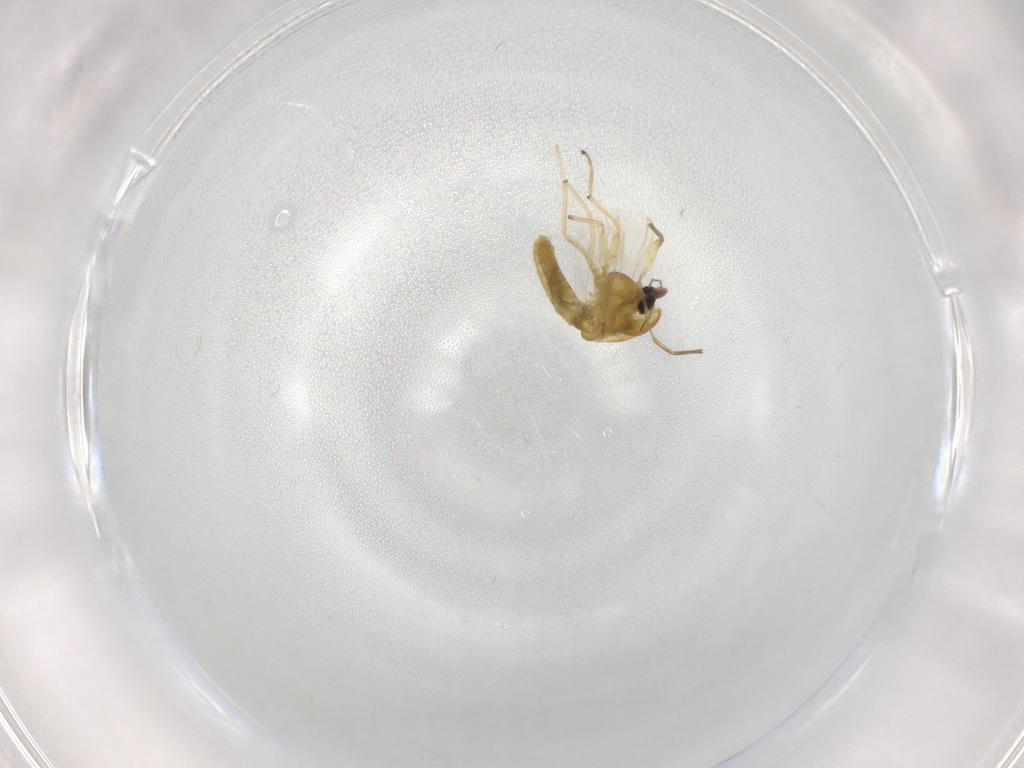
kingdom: Animalia
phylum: Arthropoda
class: Insecta
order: Diptera
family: Chironomidae
